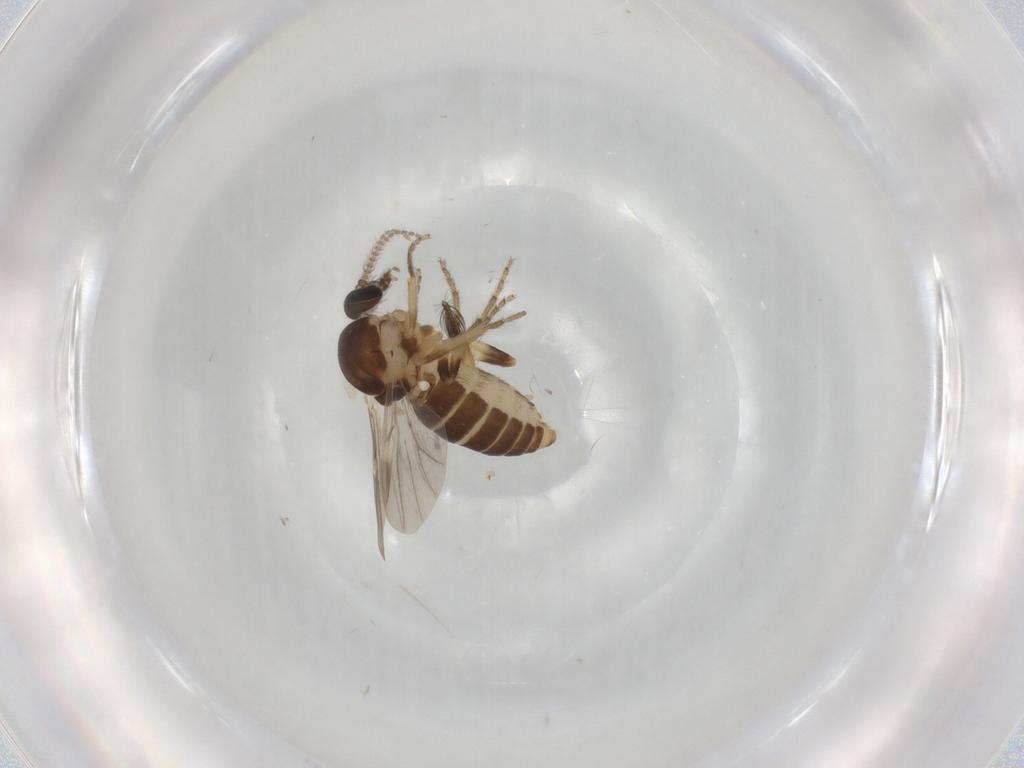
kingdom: Animalia
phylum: Arthropoda
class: Insecta
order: Diptera
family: Ceratopogonidae
